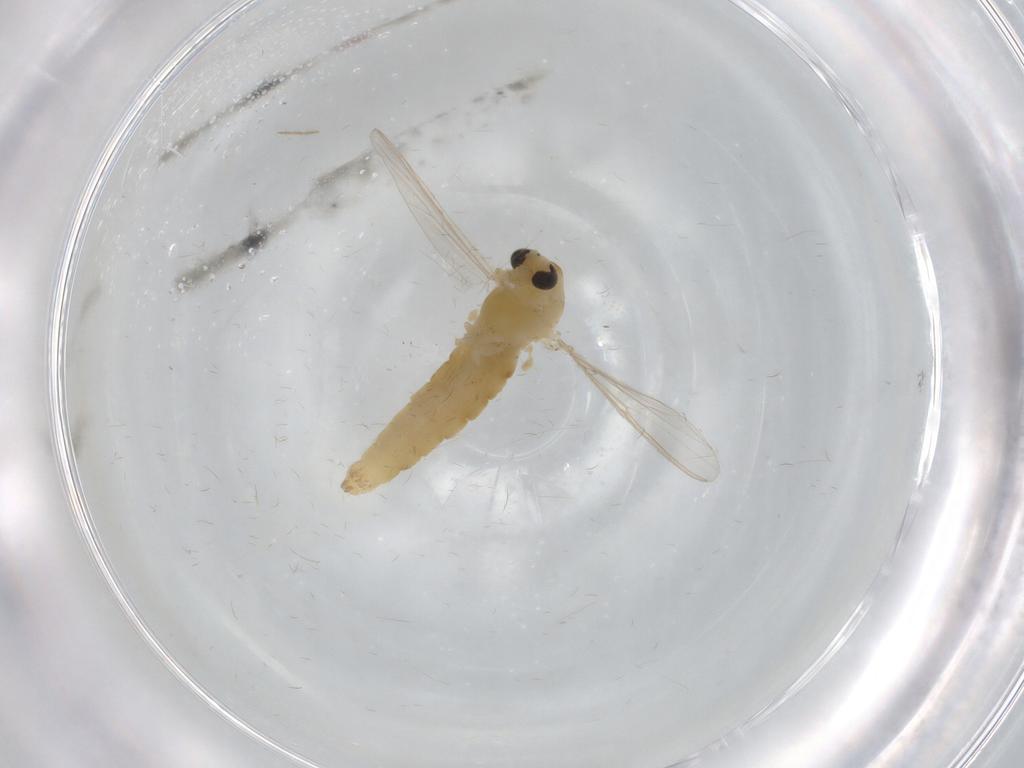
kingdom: Animalia
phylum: Arthropoda
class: Insecta
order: Diptera
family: Chironomidae
